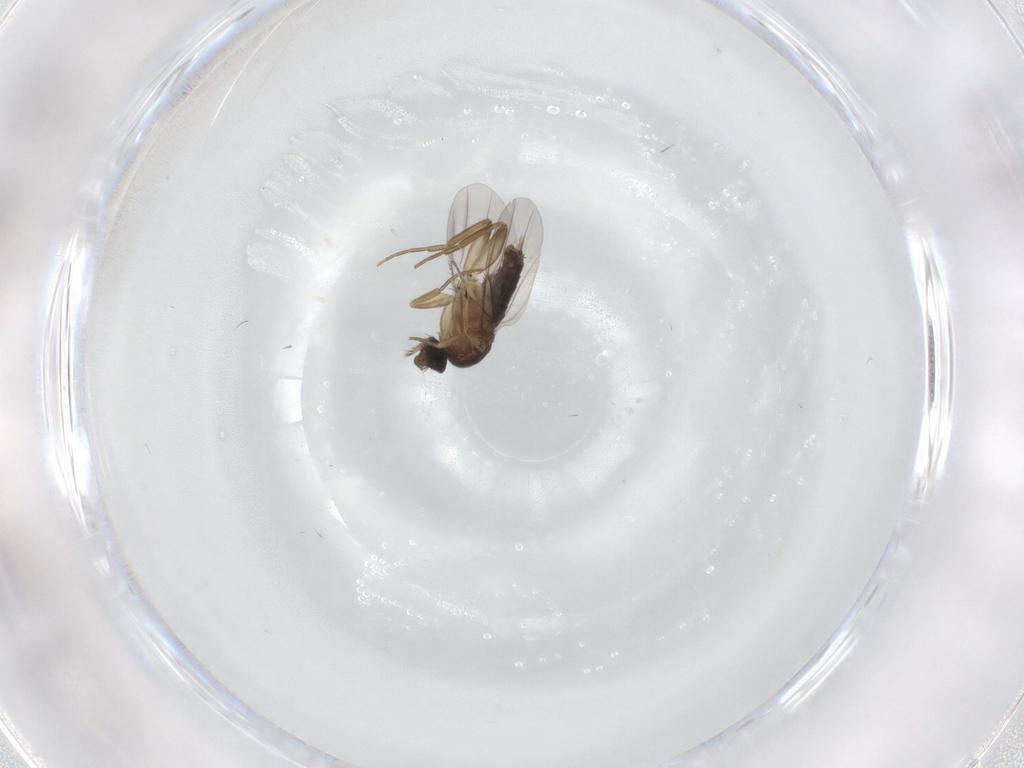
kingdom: Animalia
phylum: Arthropoda
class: Insecta
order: Diptera
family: Phoridae
